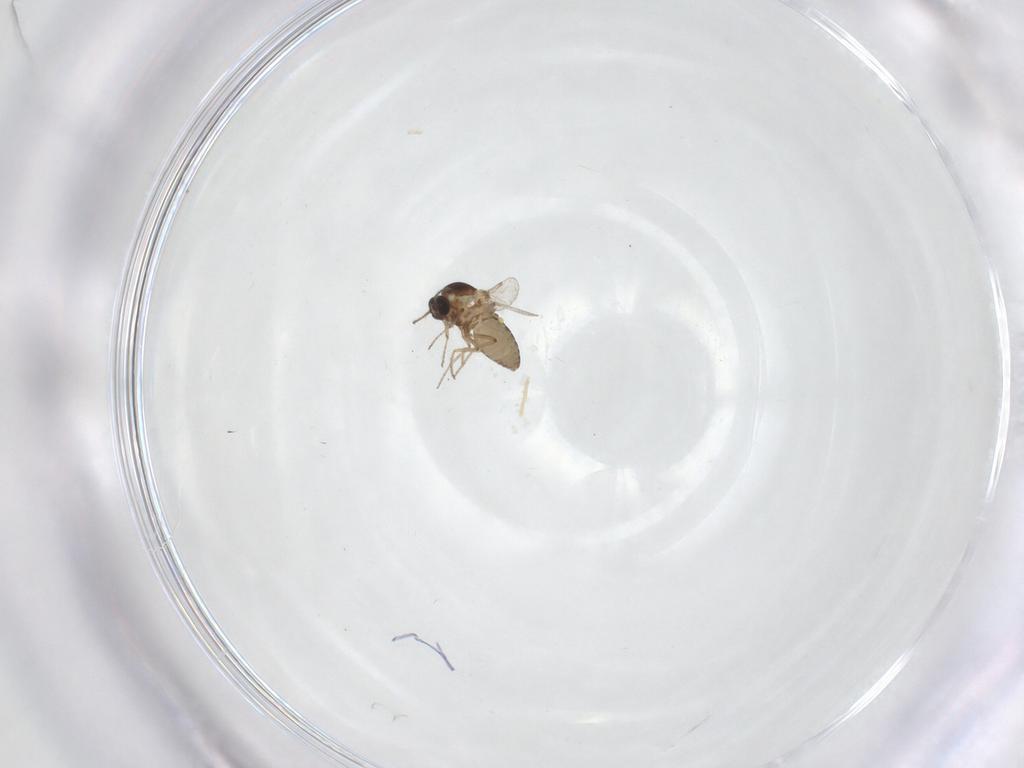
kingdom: Animalia
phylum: Arthropoda
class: Insecta
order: Diptera
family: Ceratopogonidae
